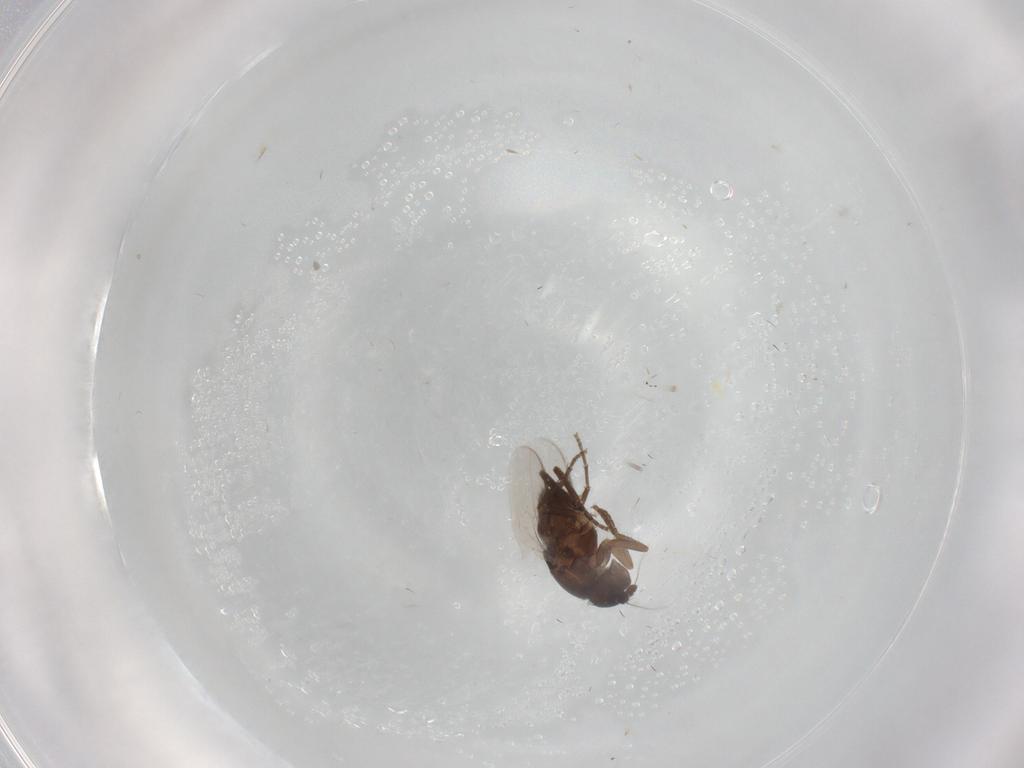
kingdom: Animalia
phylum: Arthropoda
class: Insecta
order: Diptera
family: Sphaeroceridae
